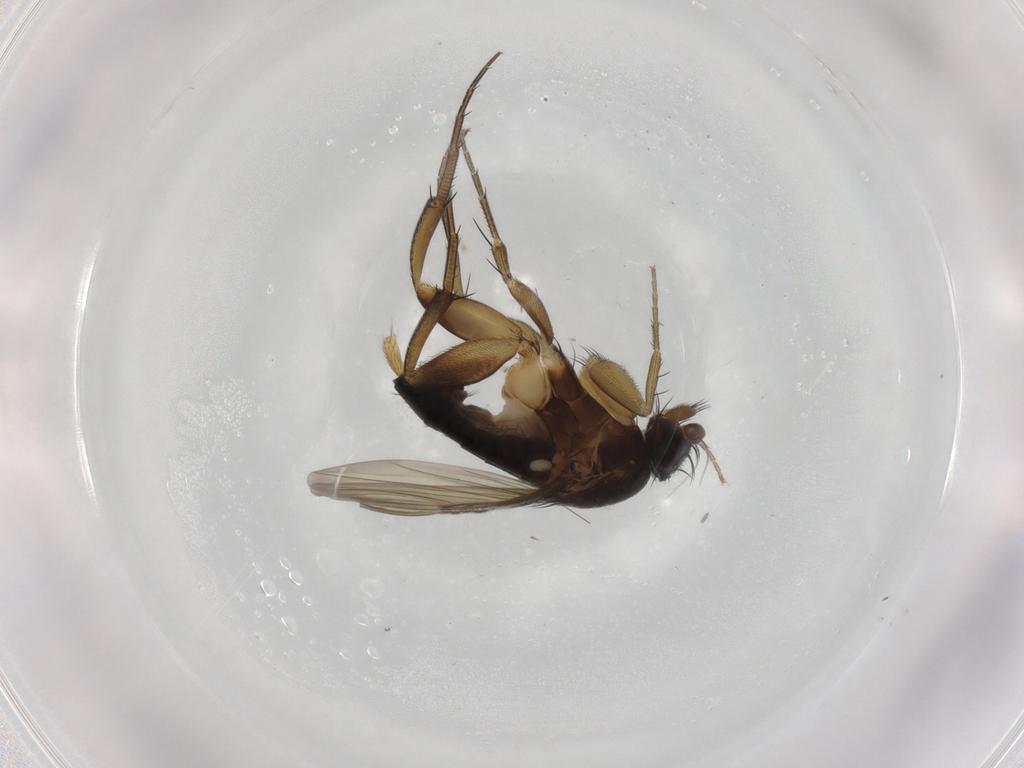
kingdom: Animalia
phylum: Arthropoda
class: Insecta
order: Diptera
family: Phoridae
